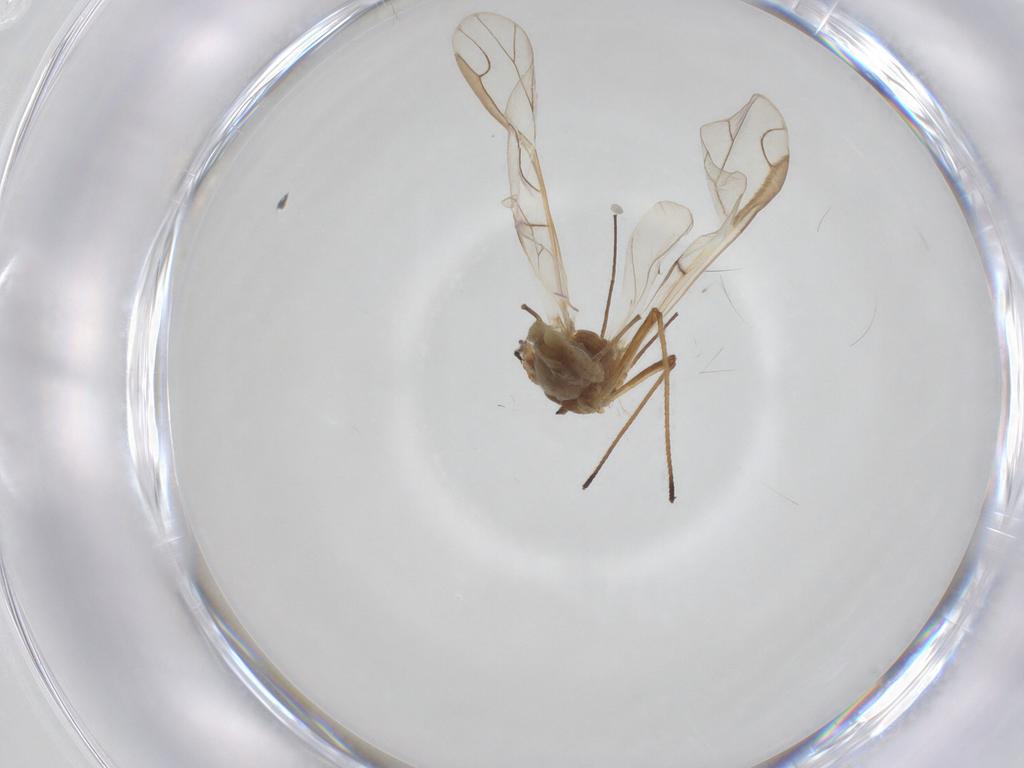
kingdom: Animalia
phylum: Arthropoda
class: Insecta
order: Hemiptera
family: Aphididae
